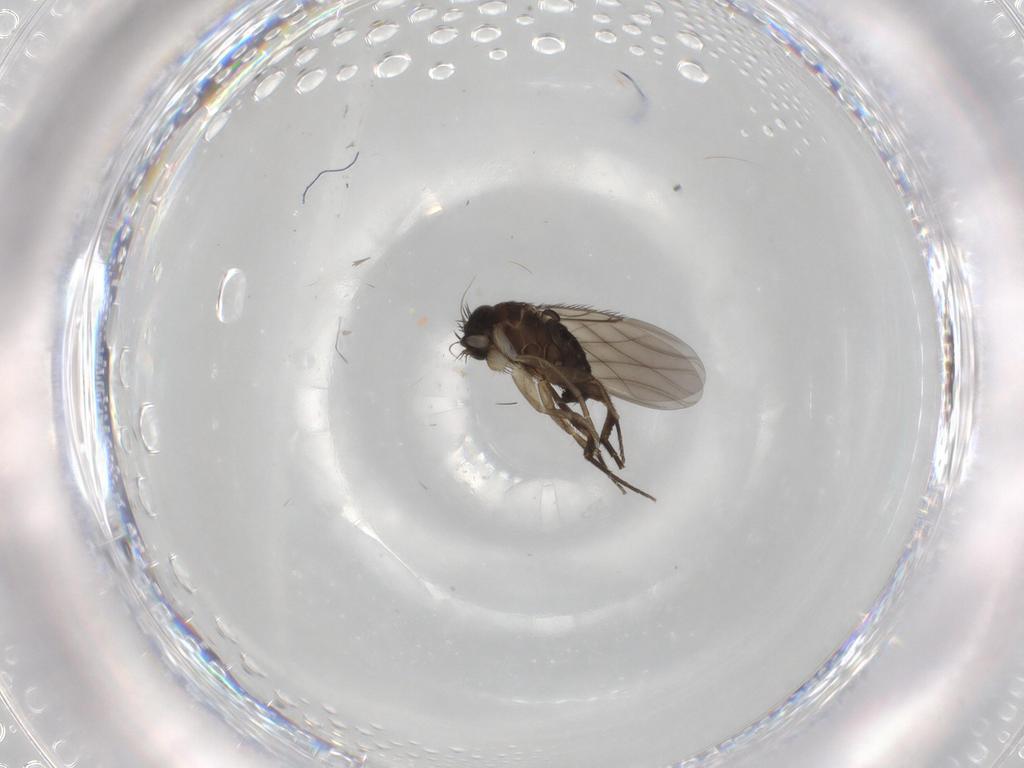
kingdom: Animalia
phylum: Arthropoda
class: Insecta
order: Diptera
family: Phoridae
